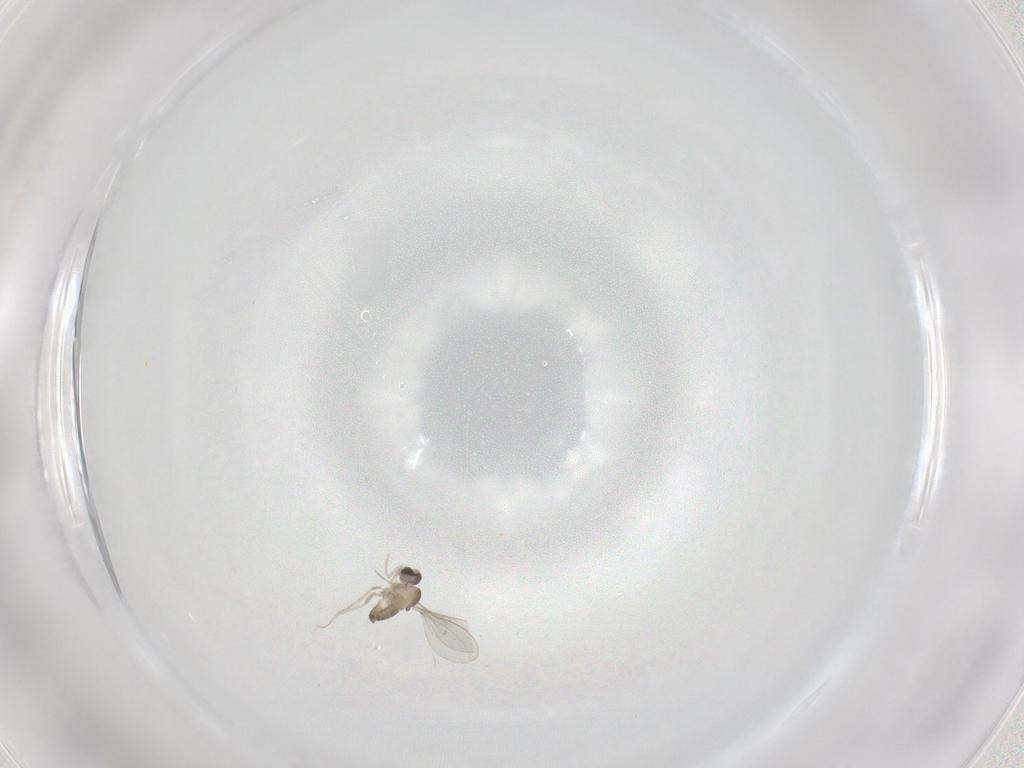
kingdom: Animalia
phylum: Arthropoda
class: Insecta
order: Diptera
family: Cecidomyiidae
